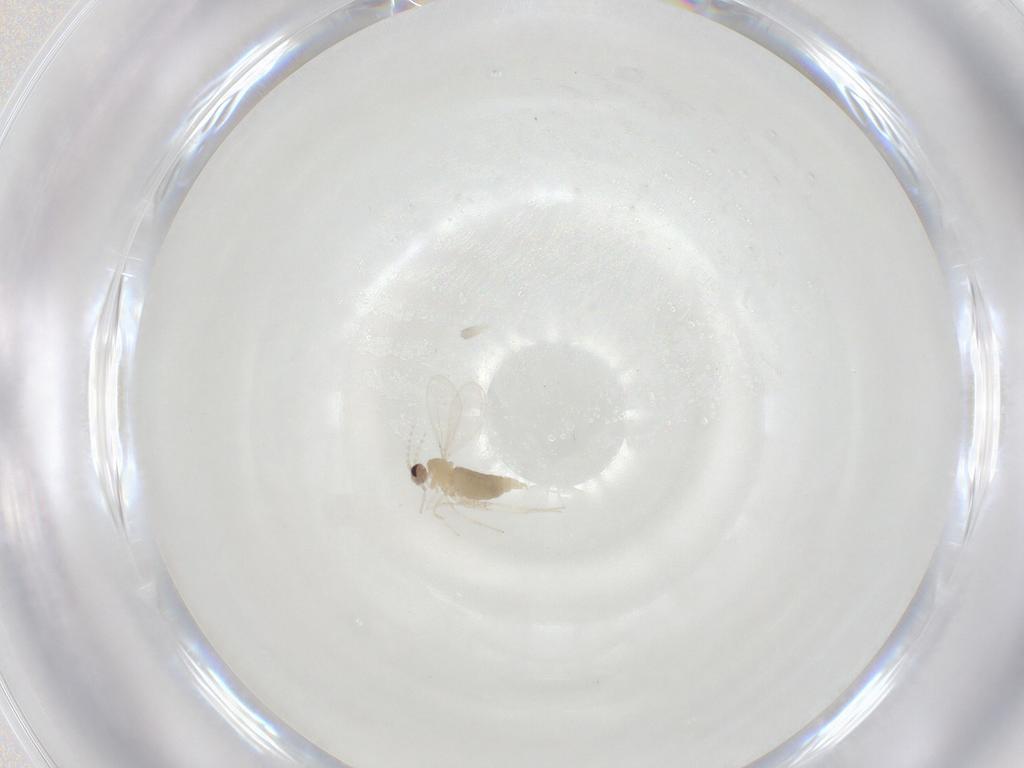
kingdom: Animalia
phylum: Arthropoda
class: Insecta
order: Diptera
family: Cecidomyiidae
